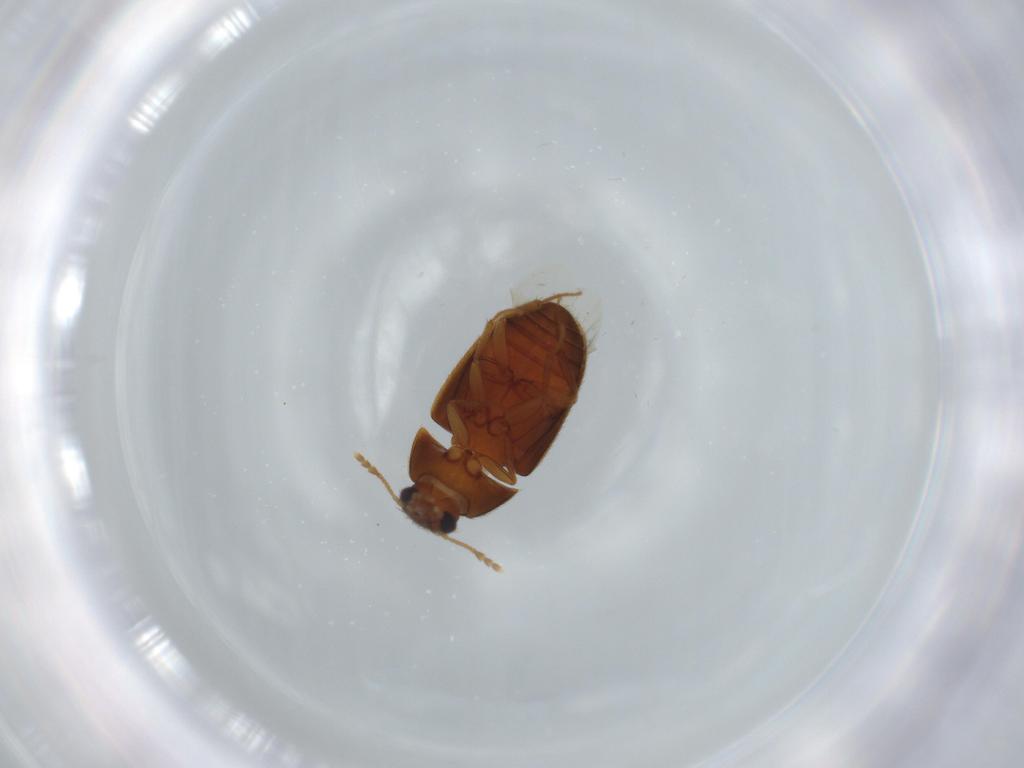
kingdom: Animalia
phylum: Arthropoda
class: Insecta
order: Coleoptera
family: Mycetophagidae
